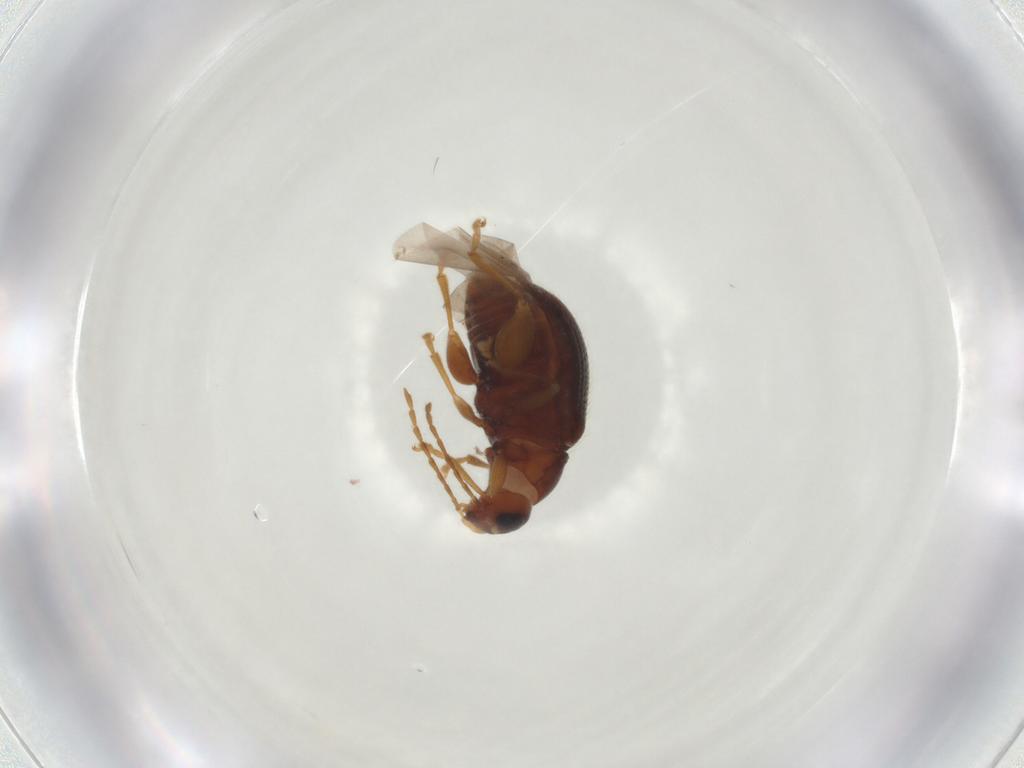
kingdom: Animalia
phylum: Arthropoda
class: Insecta
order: Coleoptera
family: Chrysomelidae
